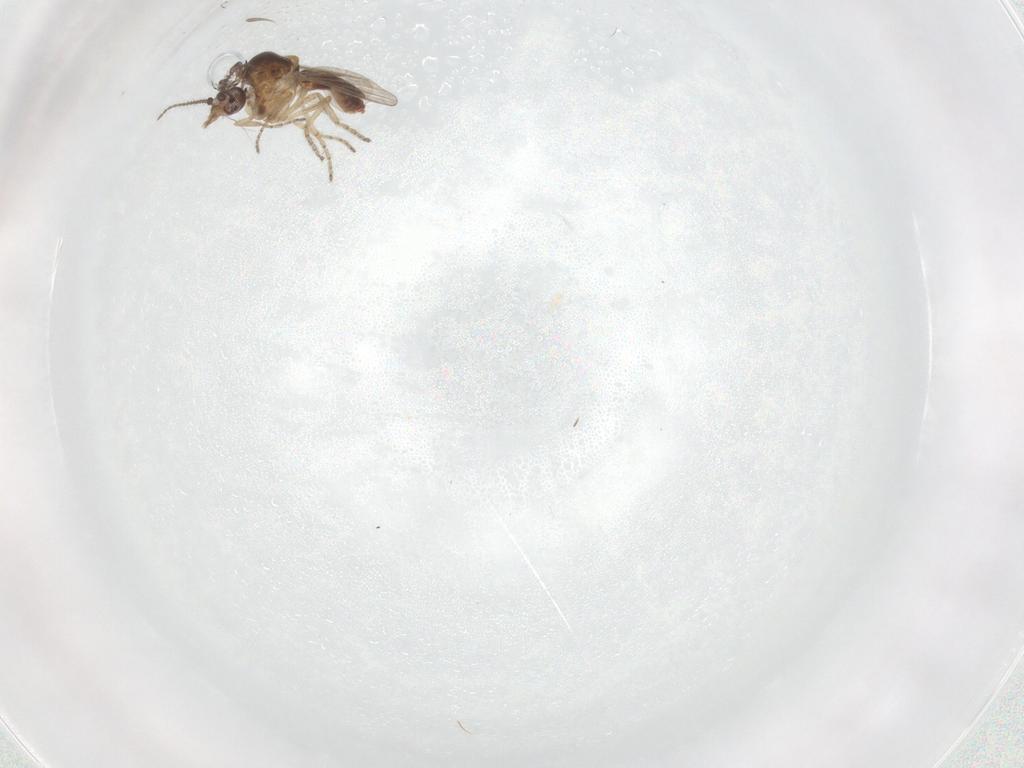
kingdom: Animalia
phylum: Arthropoda
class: Insecta
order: Diptera
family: Ceratopogonidae
